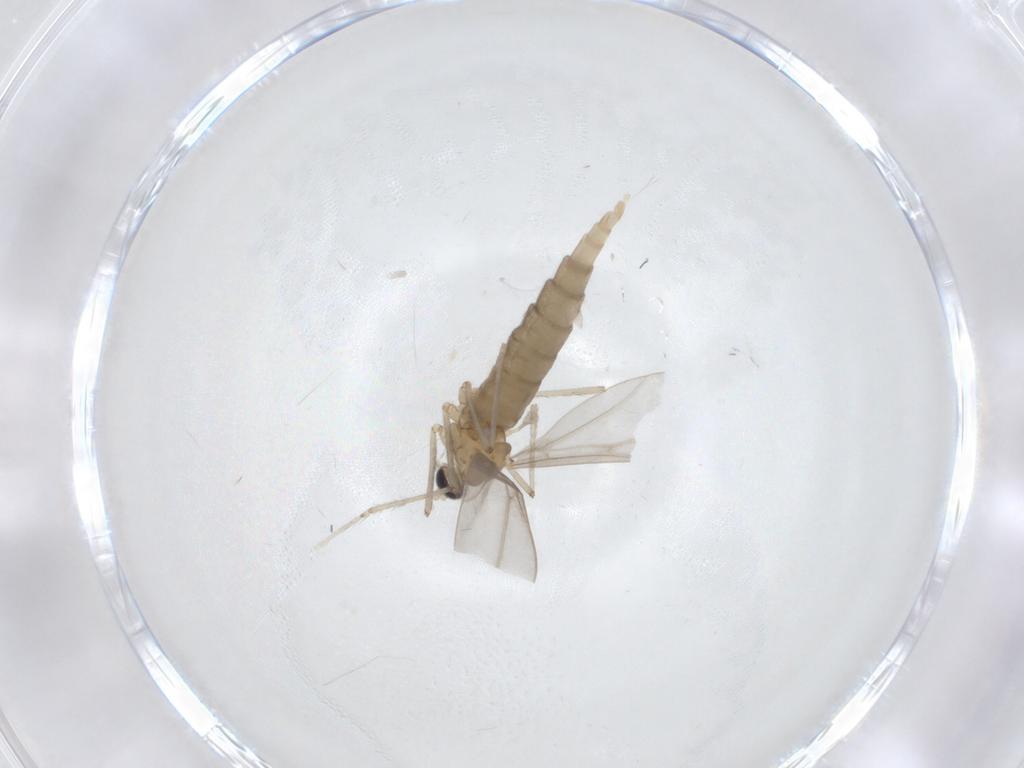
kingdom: Animalia
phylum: Arthropoda
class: Insecta
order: Diptera
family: Cecidomyiidae
